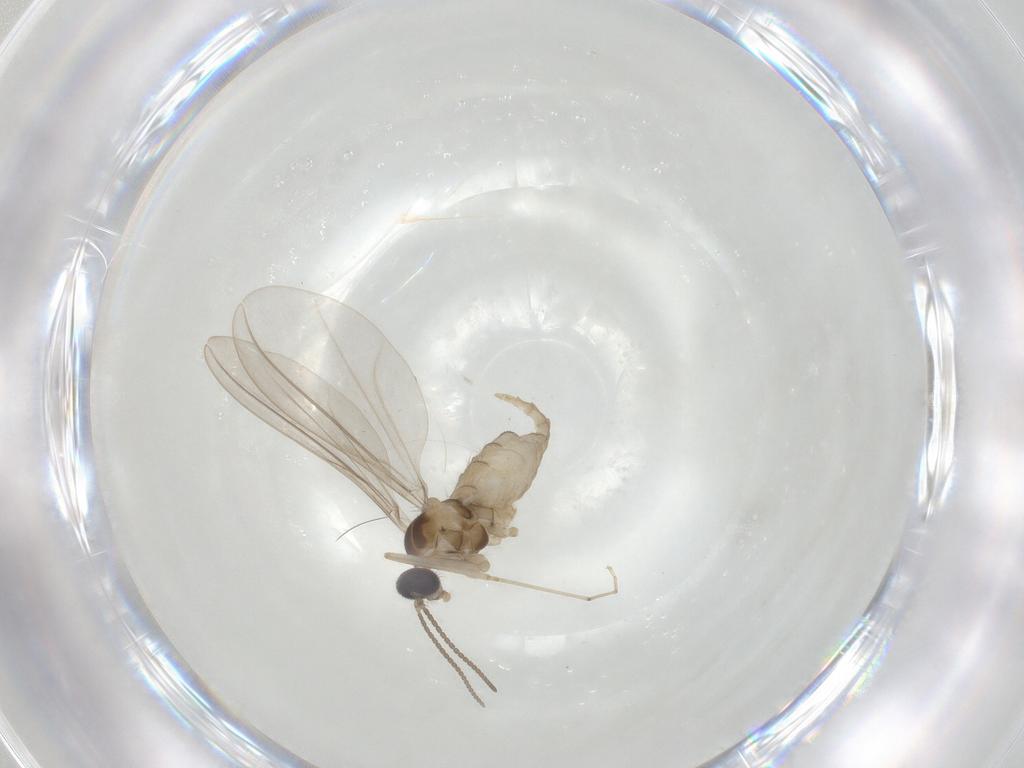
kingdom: Animalia
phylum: Arthropoda
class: Insecta
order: Diptera
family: Cecidomyiidae
